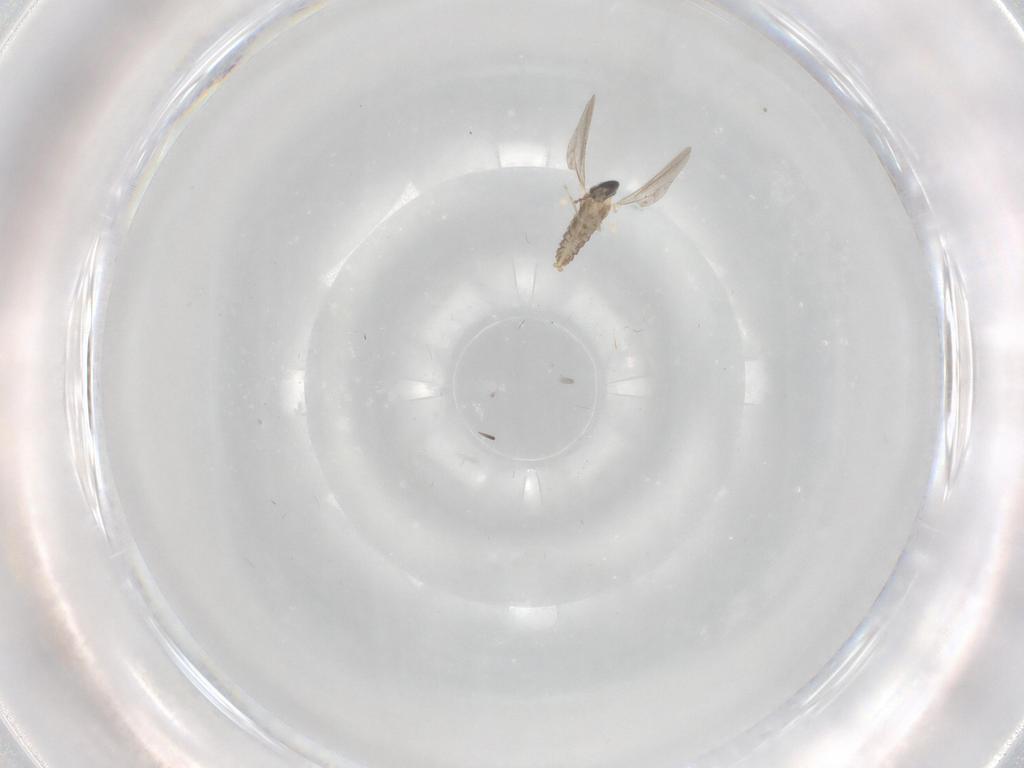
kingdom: Animalia
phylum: Arthropoda
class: Insecta
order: Diptera
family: Cecidomyiidae
